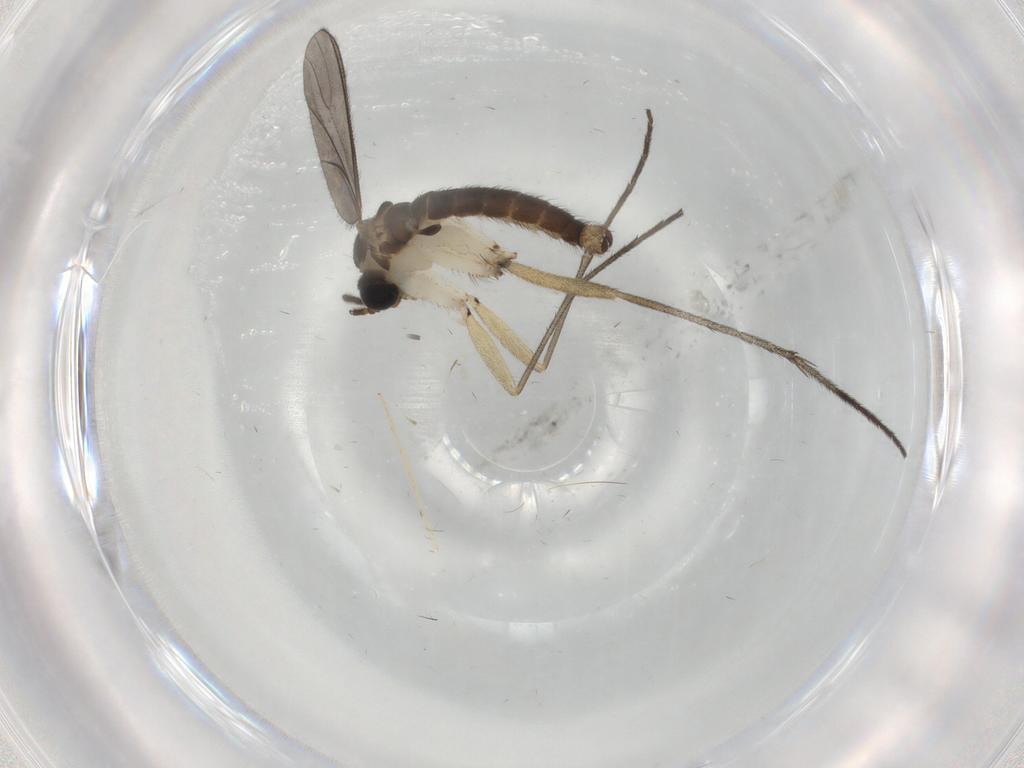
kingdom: Animalia
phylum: Arthropoda
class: Insecta
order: Diptera
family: Sciaridae
